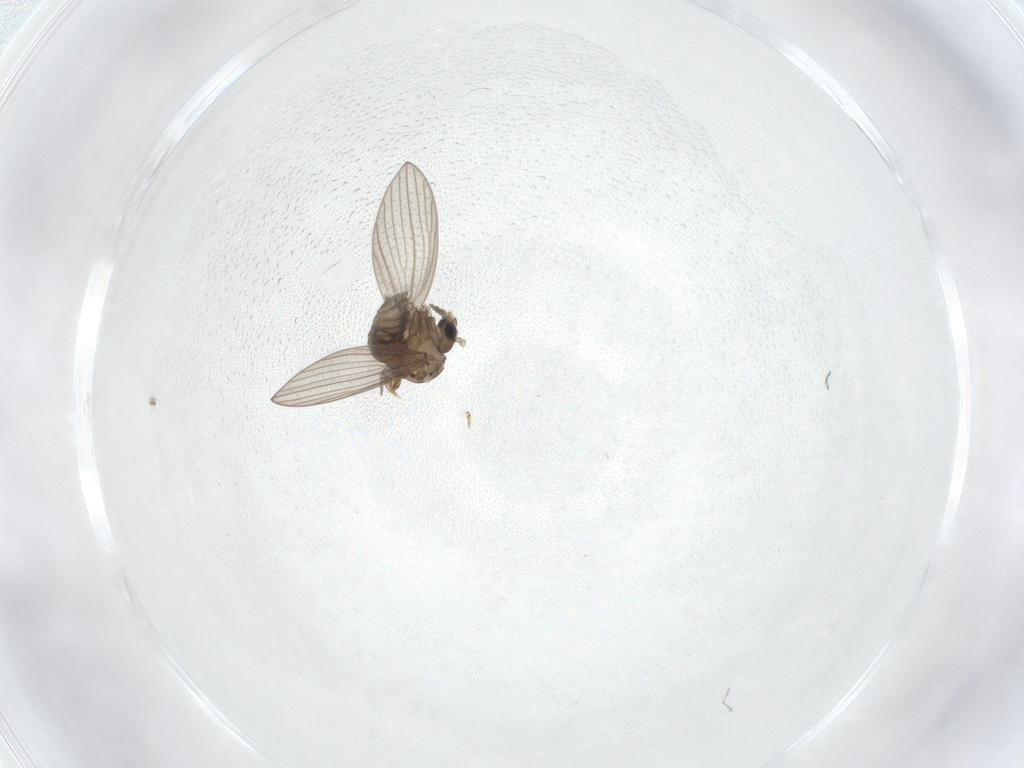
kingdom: Animalia
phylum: Arthropoda
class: Insecta
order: Diptera
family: Psychodidae
